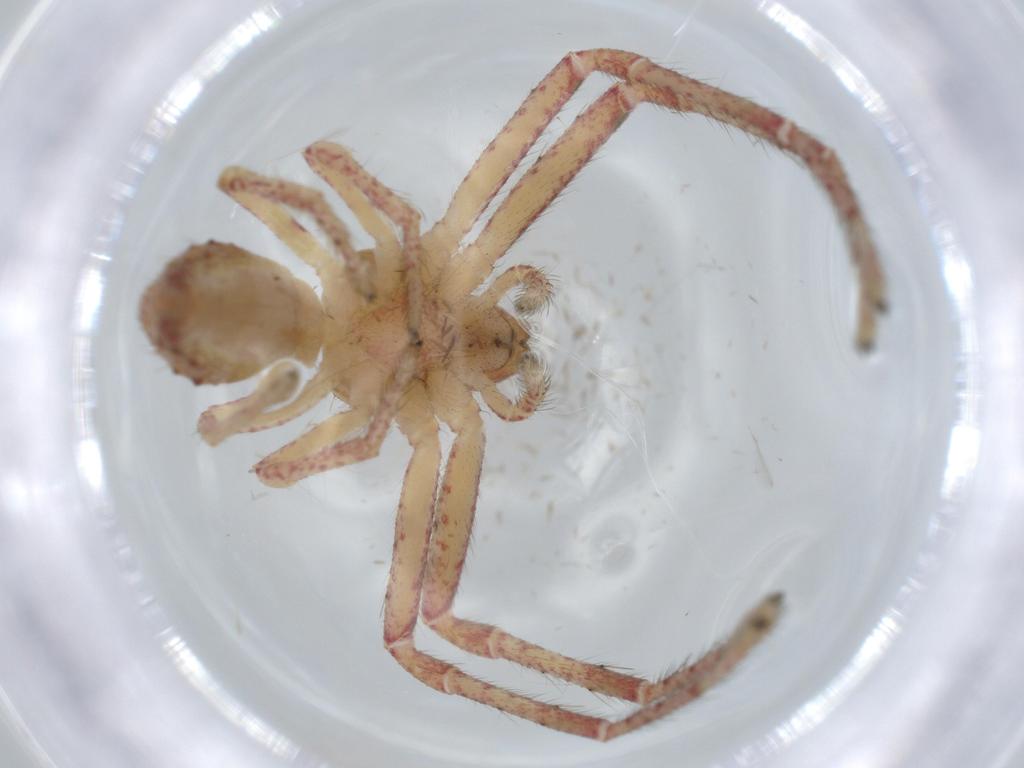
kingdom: Animalia
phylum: Arthropoda
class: Arachnida
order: Araneae
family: Thomisidae
